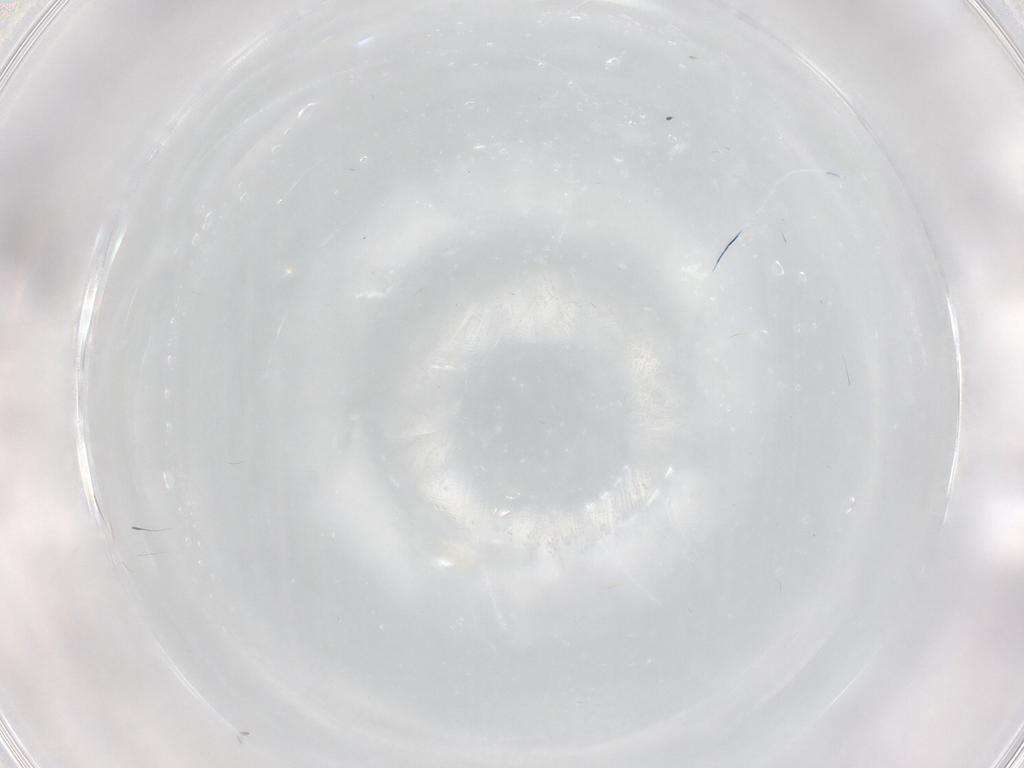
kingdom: Animalia
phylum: Arthropoda
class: Insecta
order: Diptera
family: Dolichopodidae
